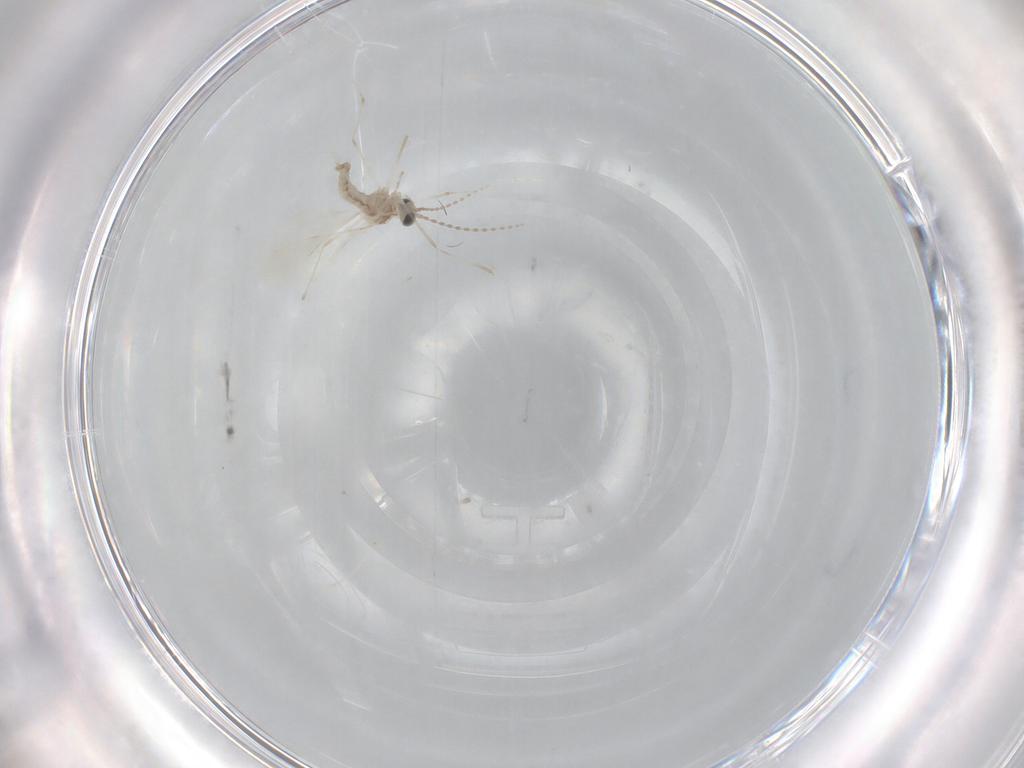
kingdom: Animalia
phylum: Arthropoda
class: Insecta
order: Diptera
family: Cecidomyiidae
